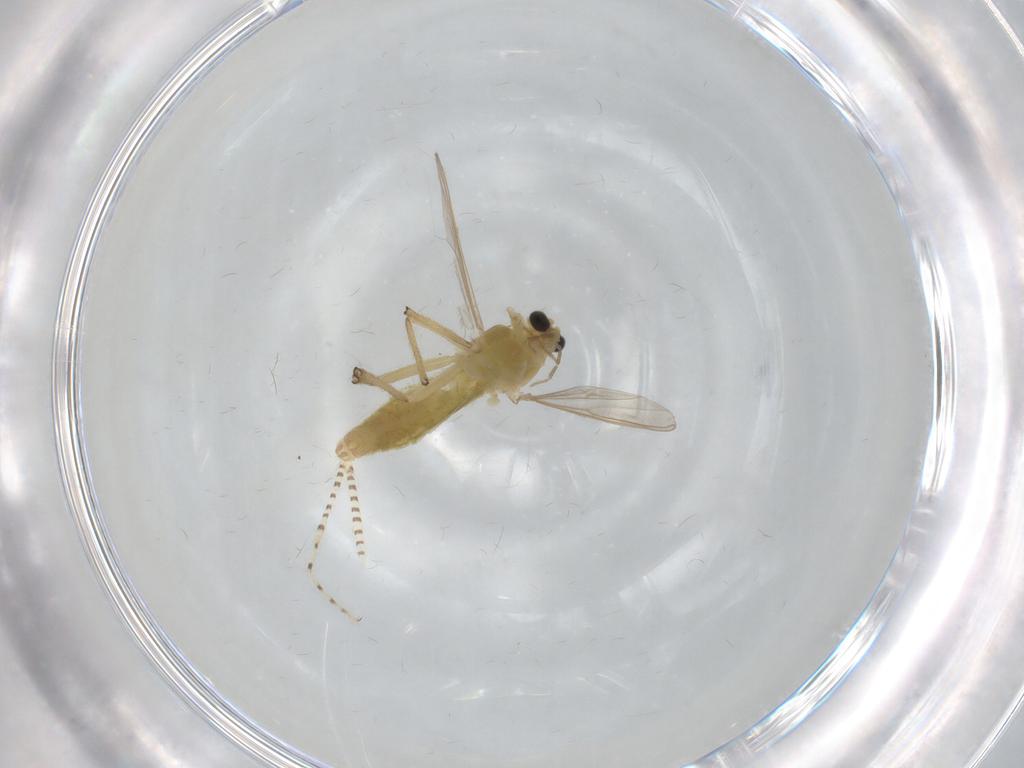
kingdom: Animalia
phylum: Arthropoda
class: Insecta
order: Diptera
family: Chironomidae
